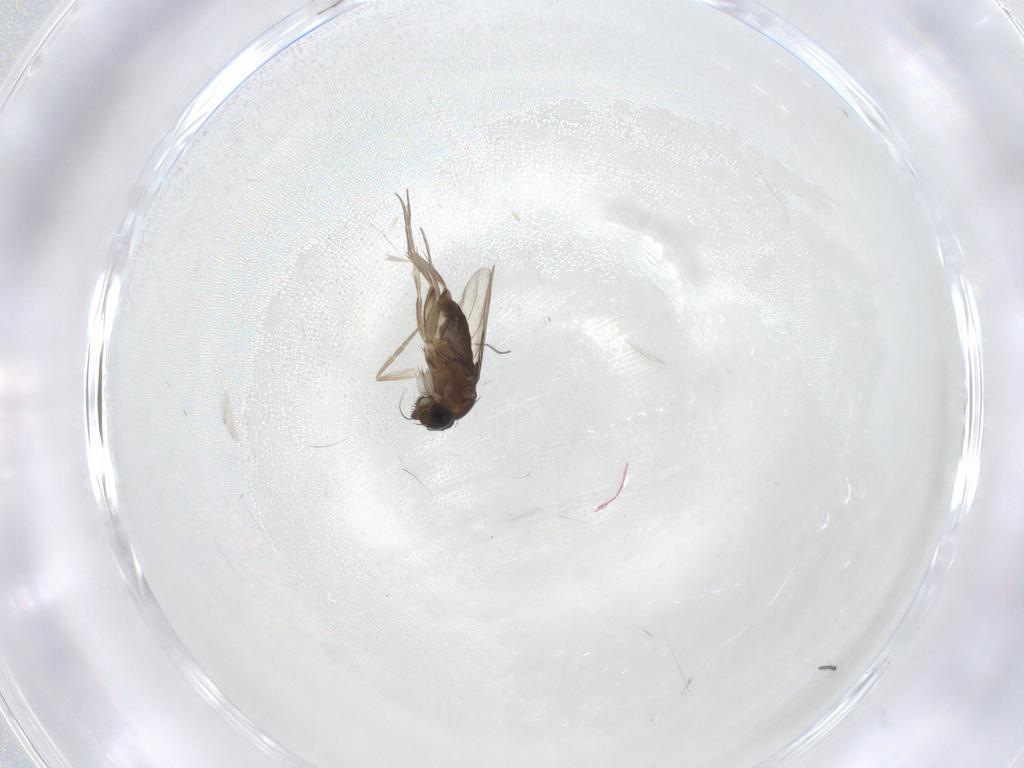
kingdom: Animalia
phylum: Arthropoda
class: Insecta
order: Diptera
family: Phoridae
